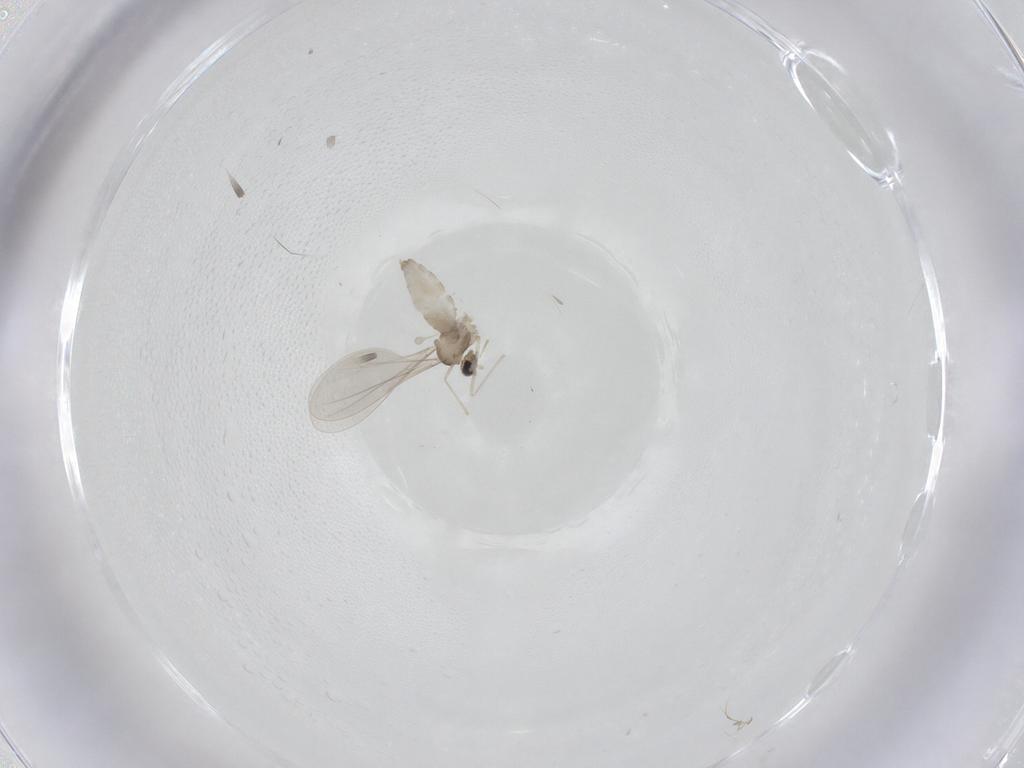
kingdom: Animalia
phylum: Arthropoda
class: Insecta
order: Diptera
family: Cecidomyiidae
